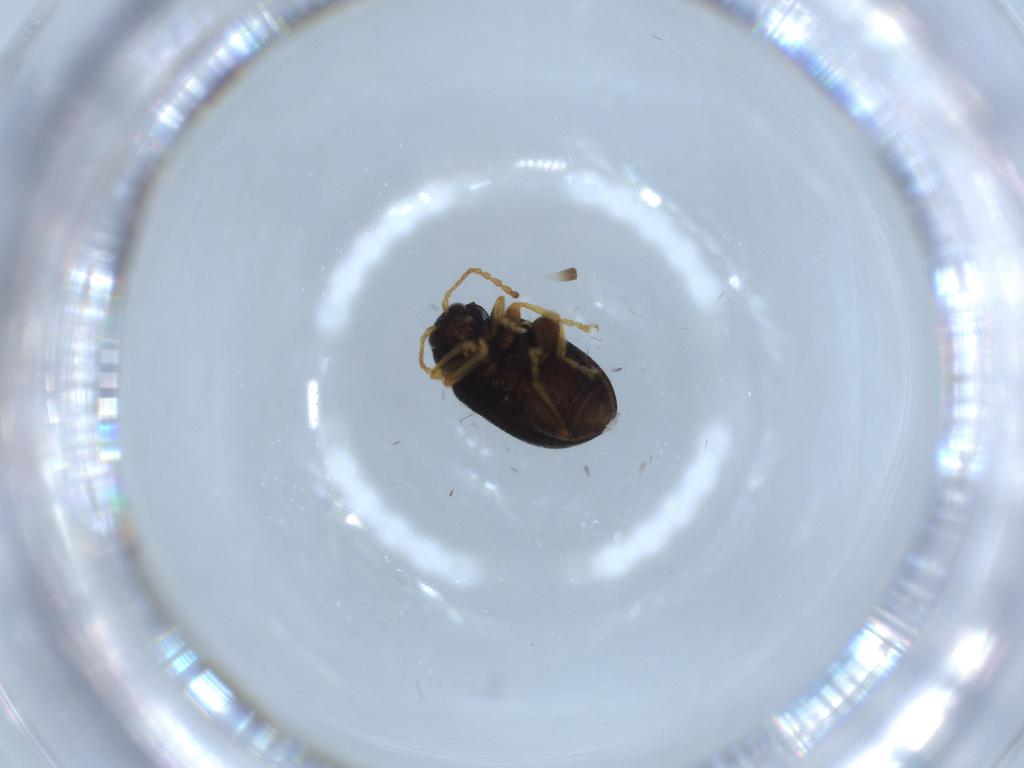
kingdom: Animalia
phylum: Arthropoda
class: Insecta
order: Coleoptera
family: Chrysomelidae
